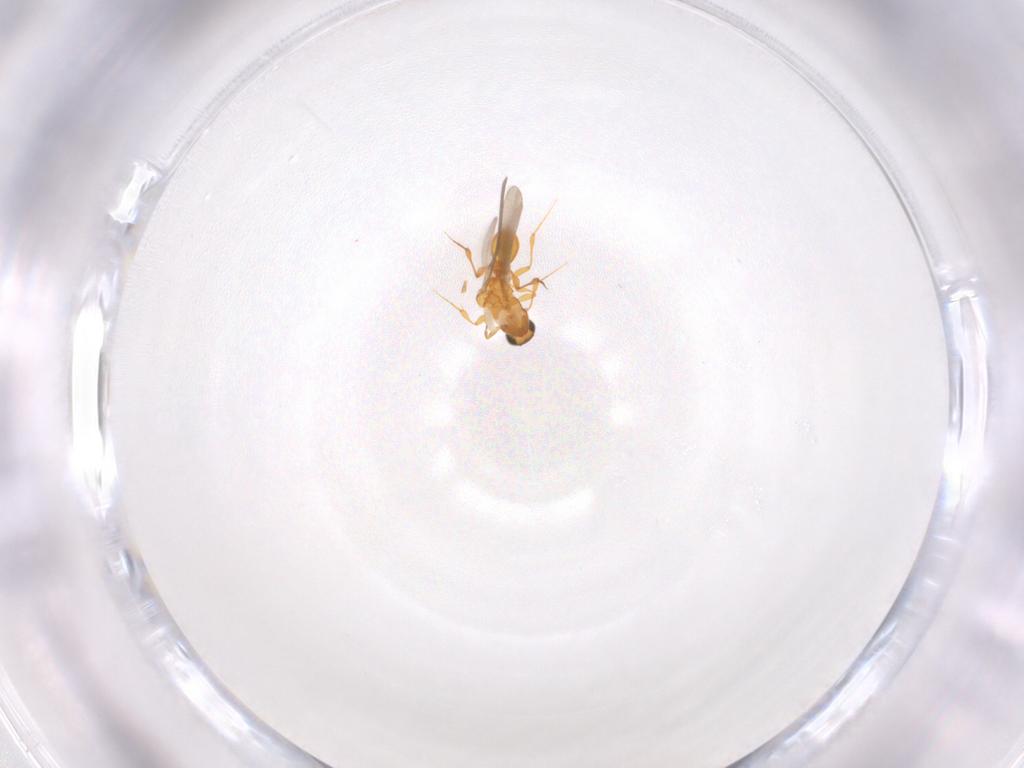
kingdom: Animalia
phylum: Arthropoda
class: Insecta
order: Hymenoptera
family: Platygastridae
